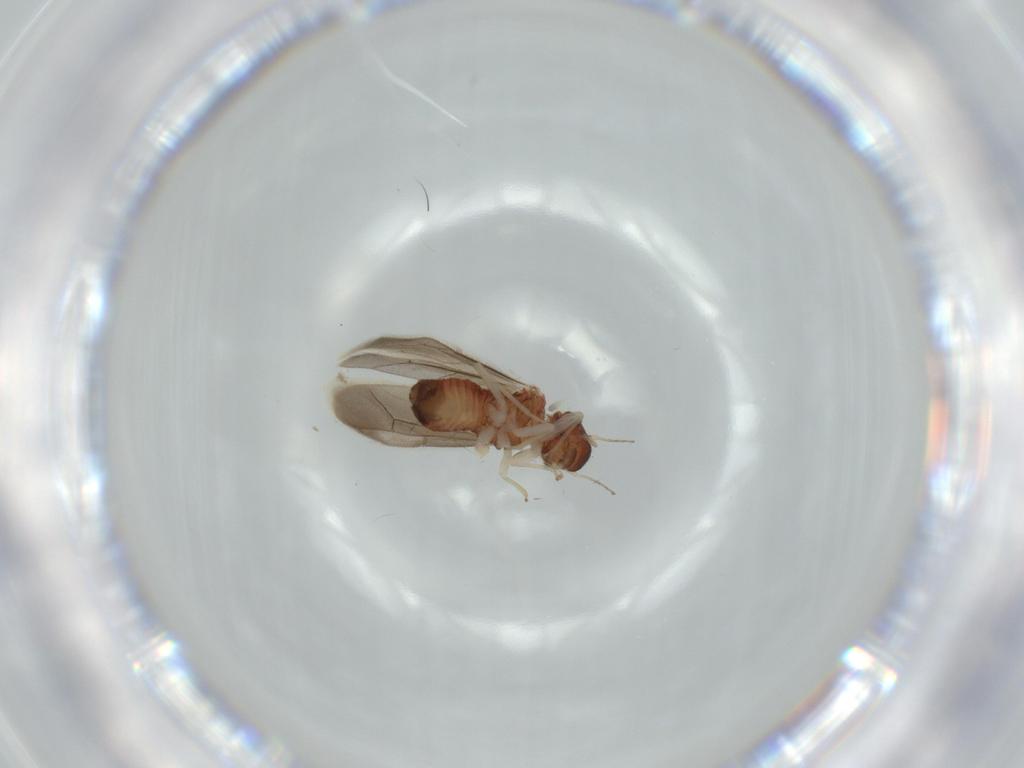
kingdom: Animalia
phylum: Arthropoda
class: Insecta
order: Psocodea
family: Archipsocidae
